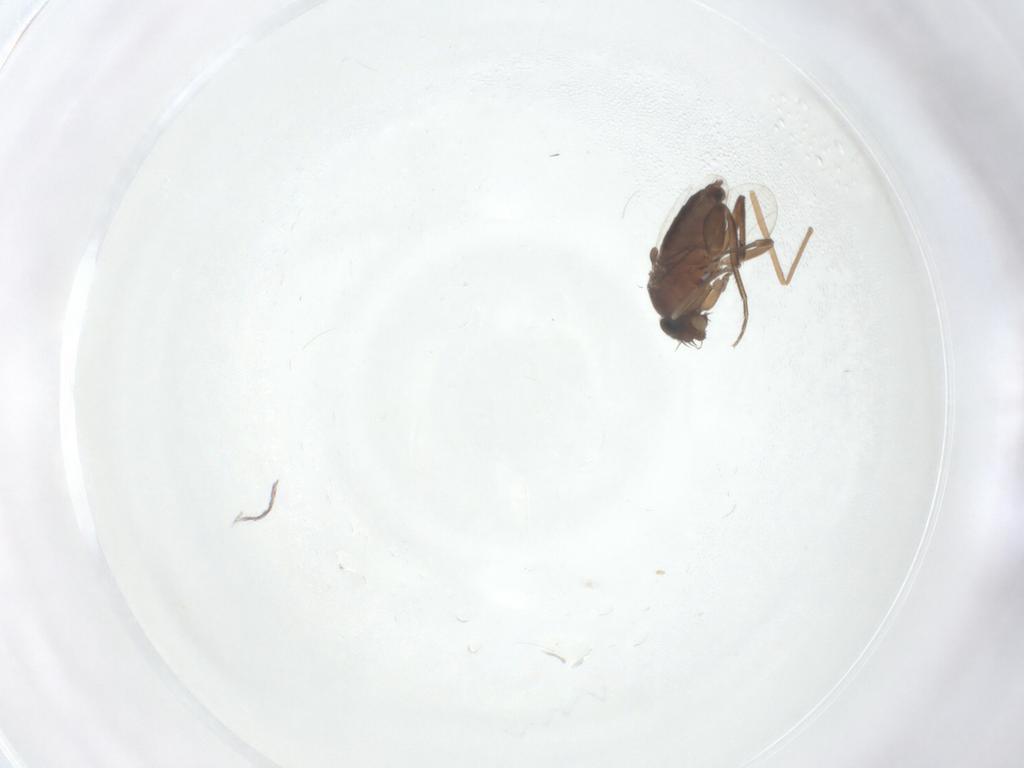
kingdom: Animalia
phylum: Arthropoda
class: Insecta
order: Diptera
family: Phoridae
